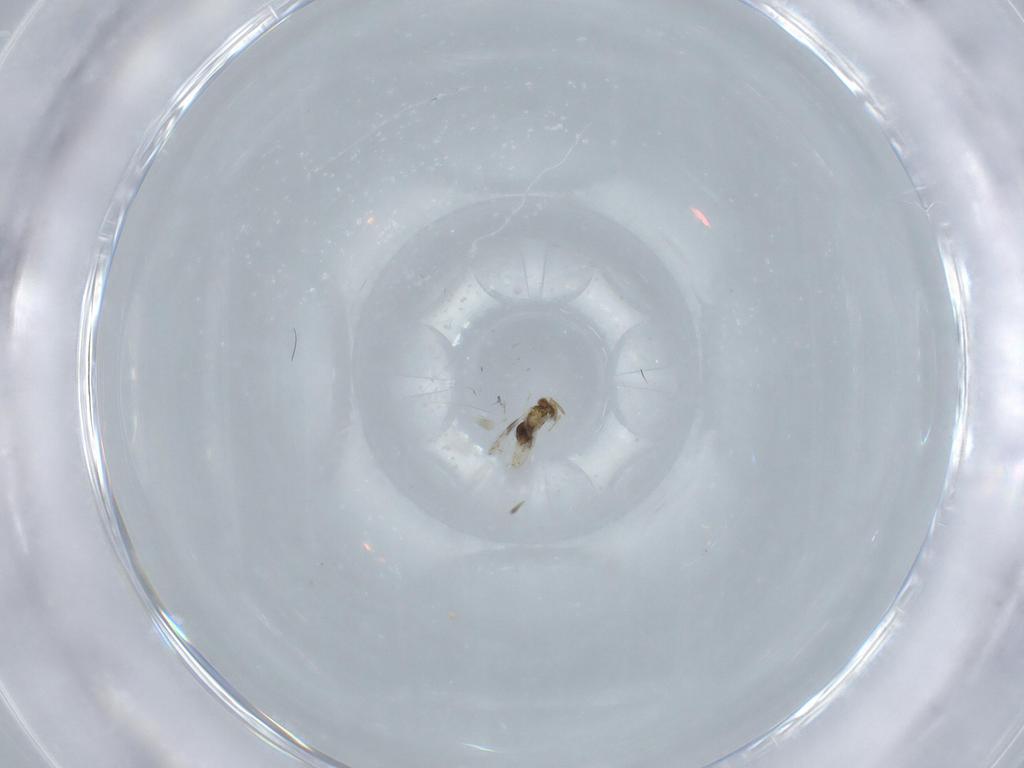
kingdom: Animalia
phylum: Arthropoda
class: Insecta
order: Hymenoptera
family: Aphelinidae
